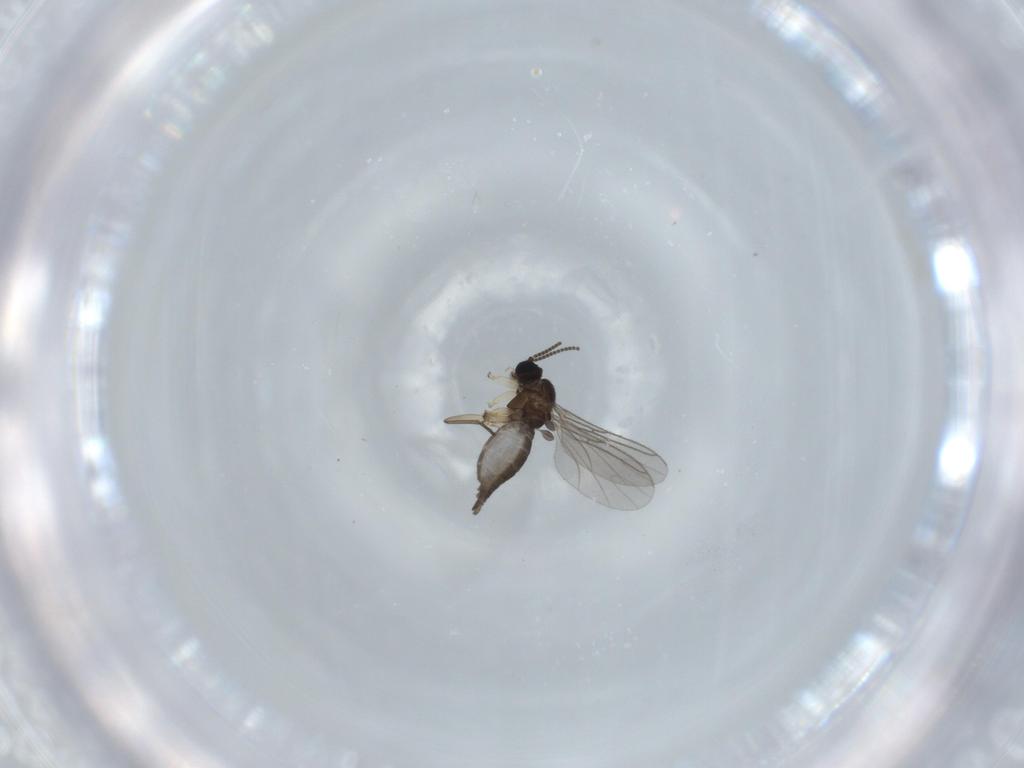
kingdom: Animalia
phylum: Arthropoda
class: Insecta
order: Diptera
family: Sciaridae
